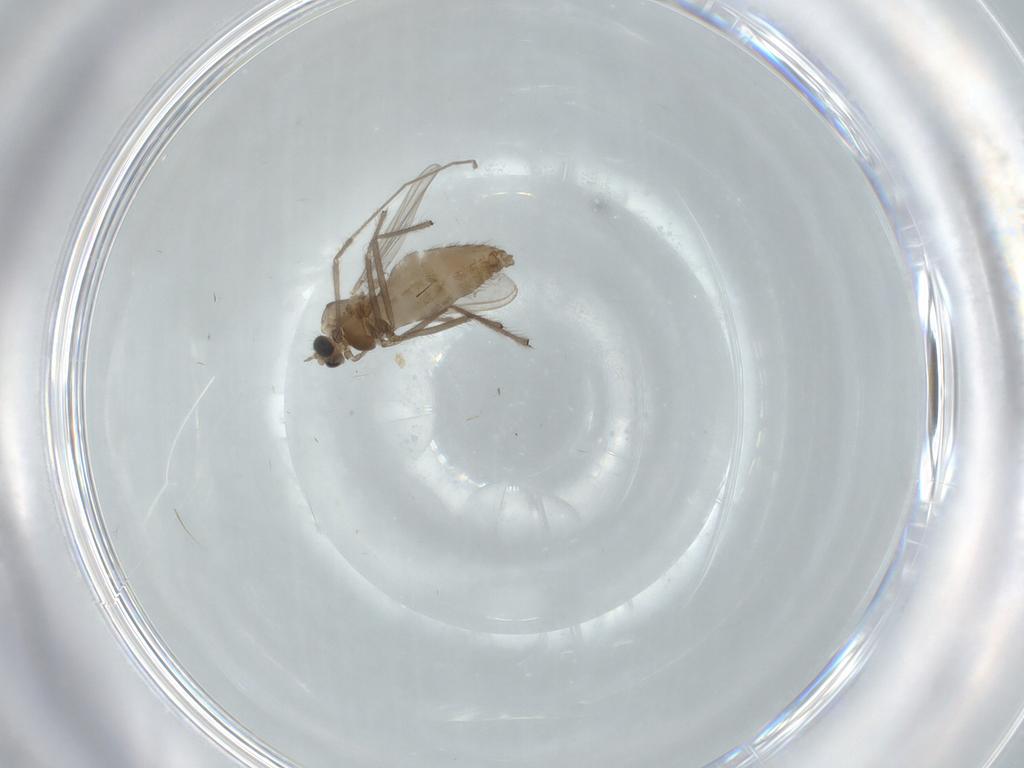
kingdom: Animalia
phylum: Arthropoda
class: Insecta
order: Diptera
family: Chironomidae
